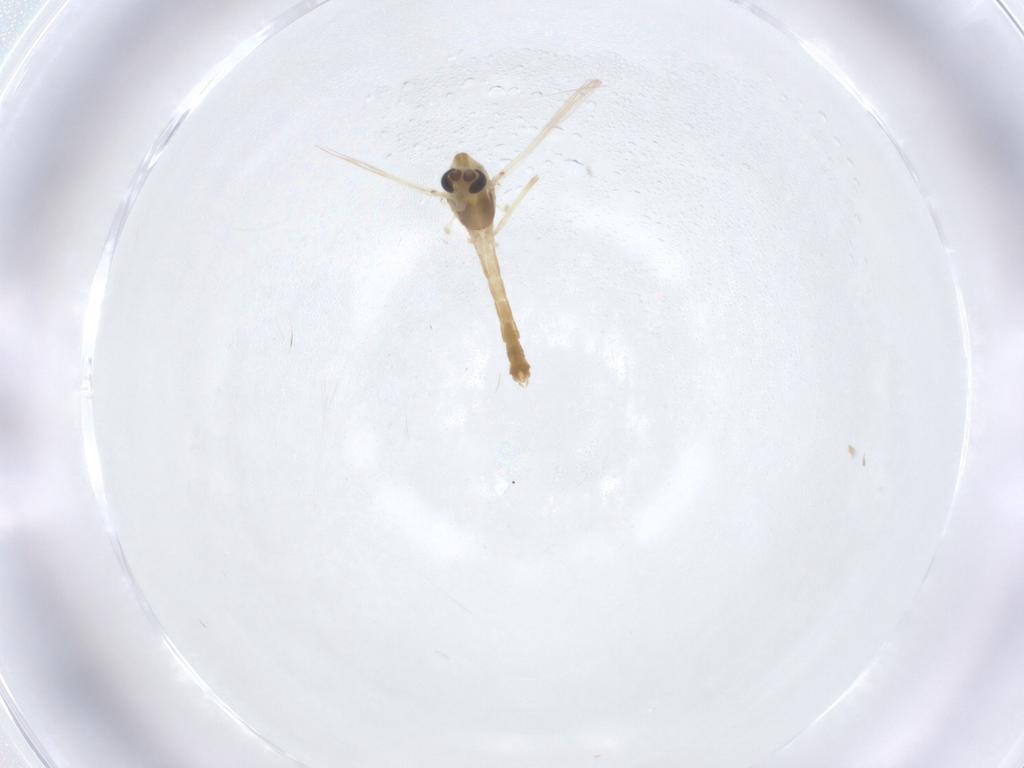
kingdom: Animalia
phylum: Arthropoda
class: Insecta
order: Diptera
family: Chironomidae
